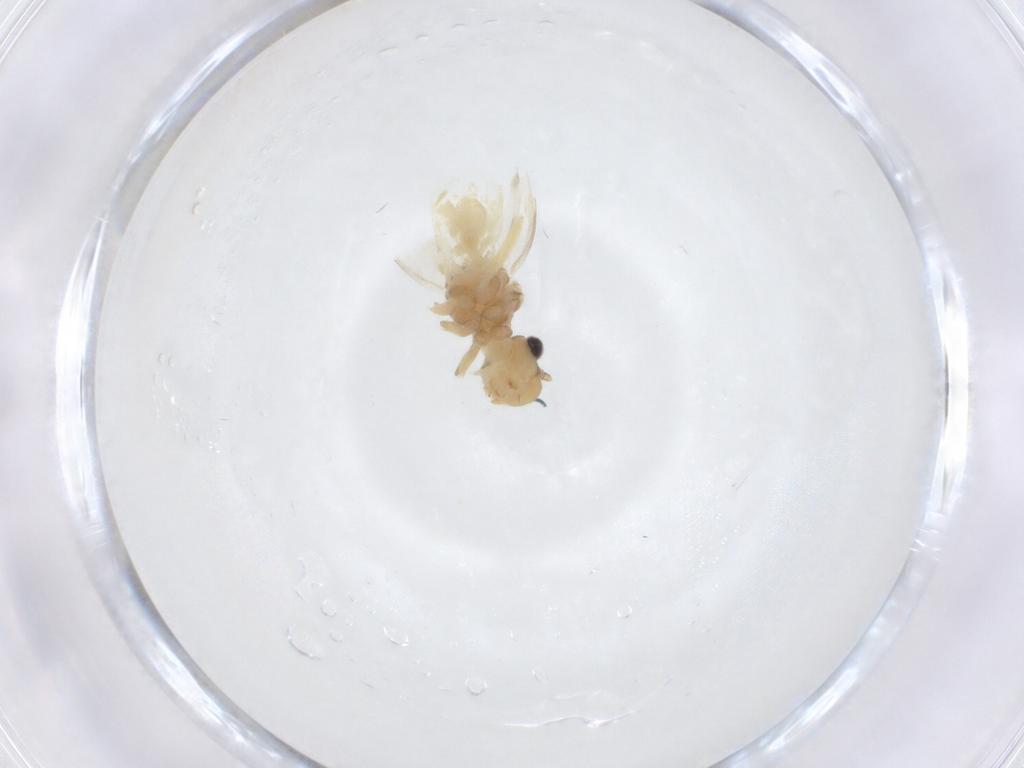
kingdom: Animalia
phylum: Arthropoda
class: Insecta
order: Psocodea
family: Caeciliusidae
